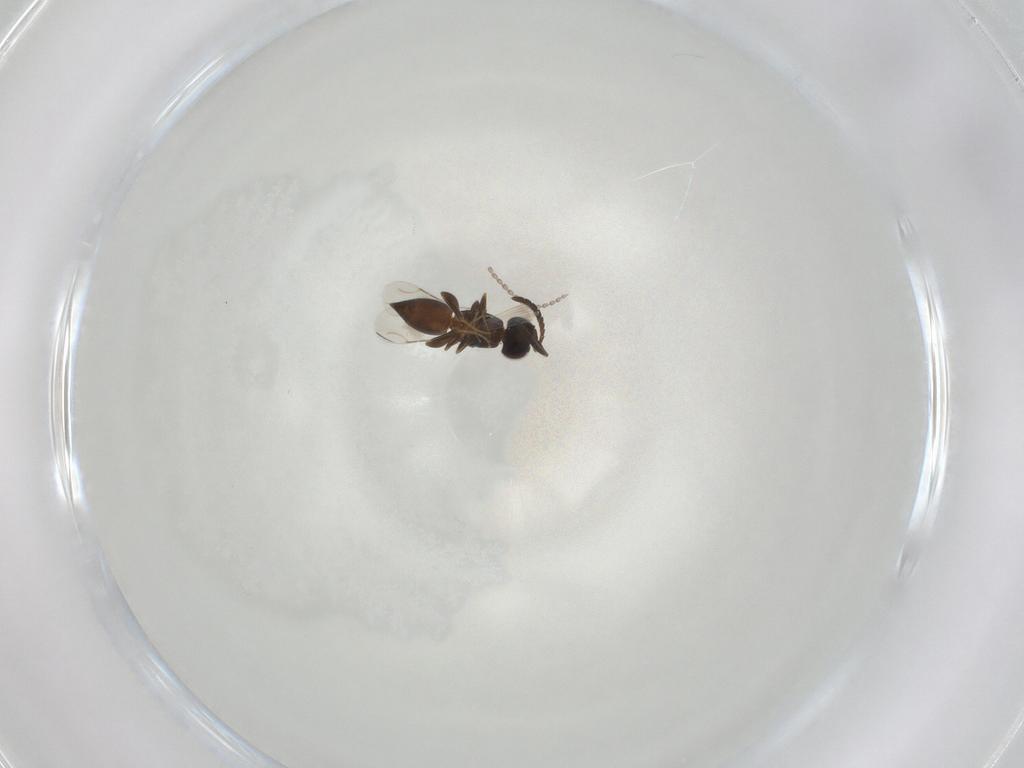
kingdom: Animalia
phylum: Arthropoda
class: Insecta
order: Hymenoptera
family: Ceraphronidae
